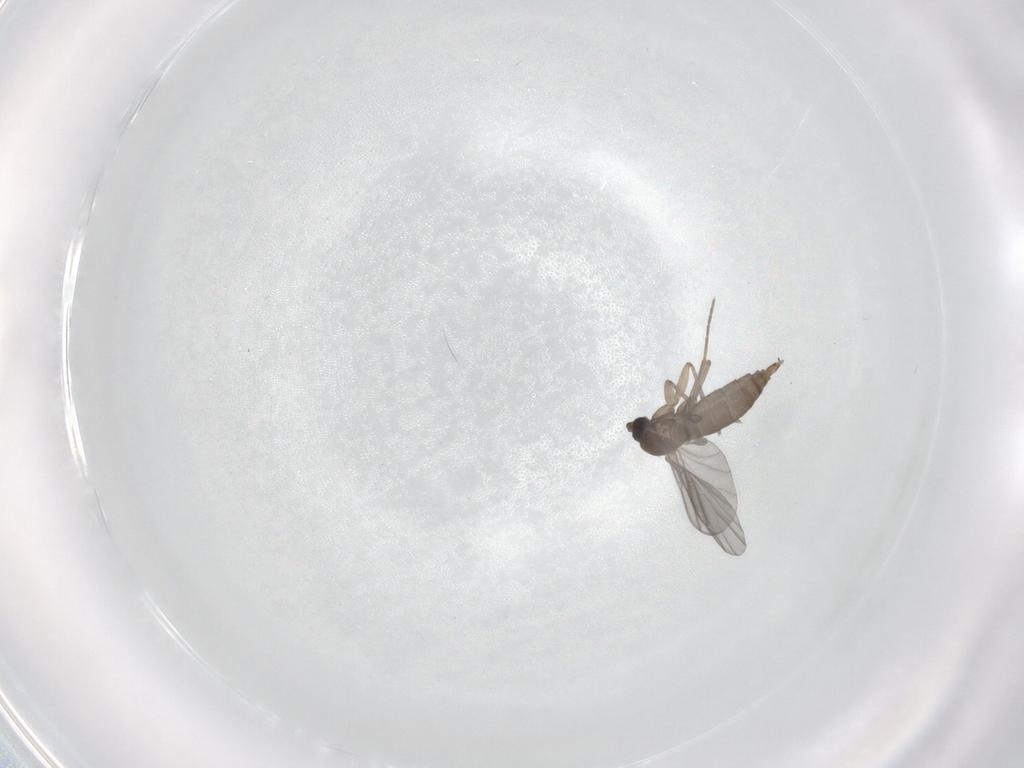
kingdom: Animalia
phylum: Arthropoda
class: Insecta
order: Diptera
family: Sciaridae
